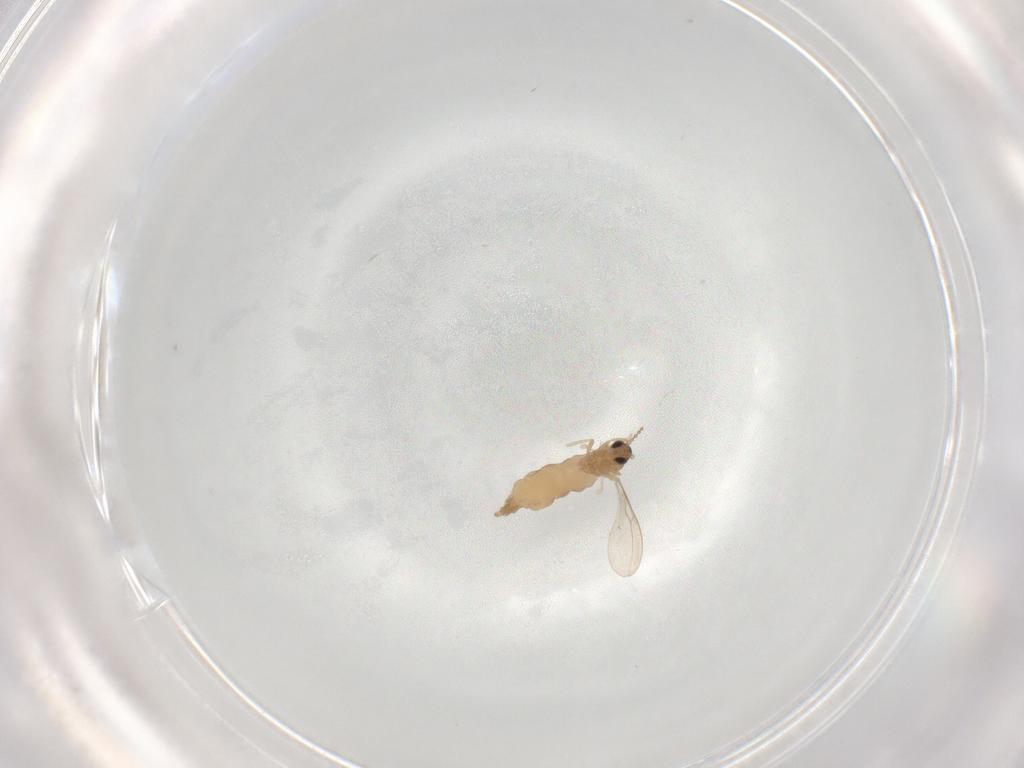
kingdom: Animalia
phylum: Arthropoda
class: Insecta
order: Diptera
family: Cecidomyiidae
